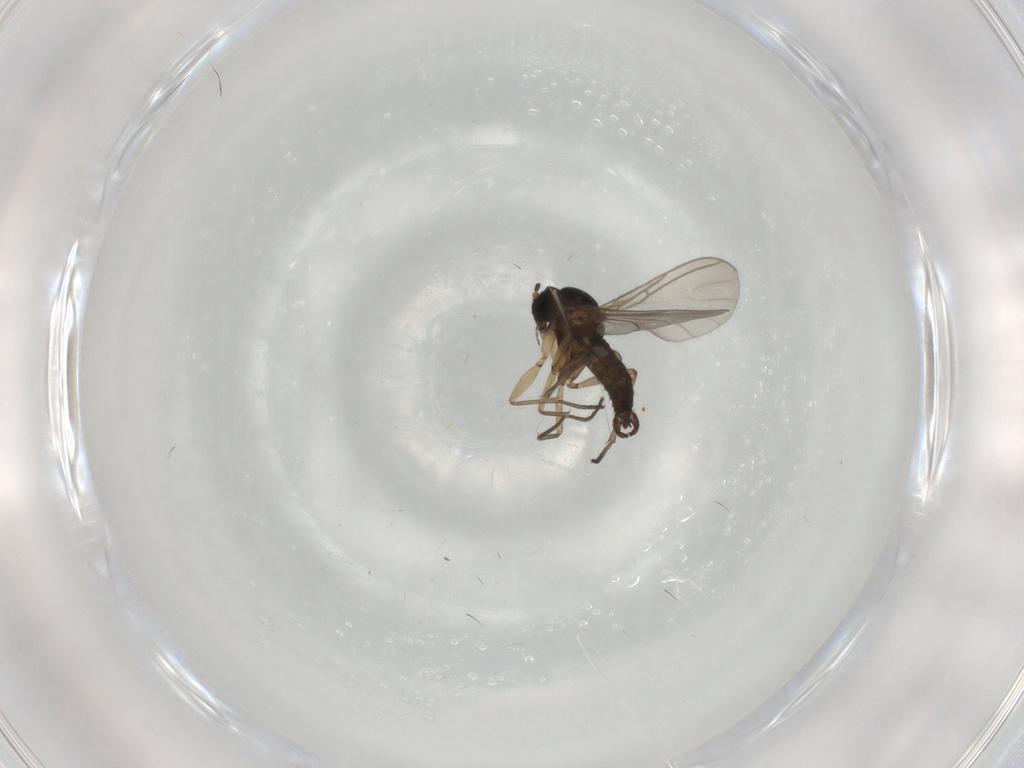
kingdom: Animalia
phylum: Arthropoda
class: Insecta
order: Diptera
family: Sciaridae
